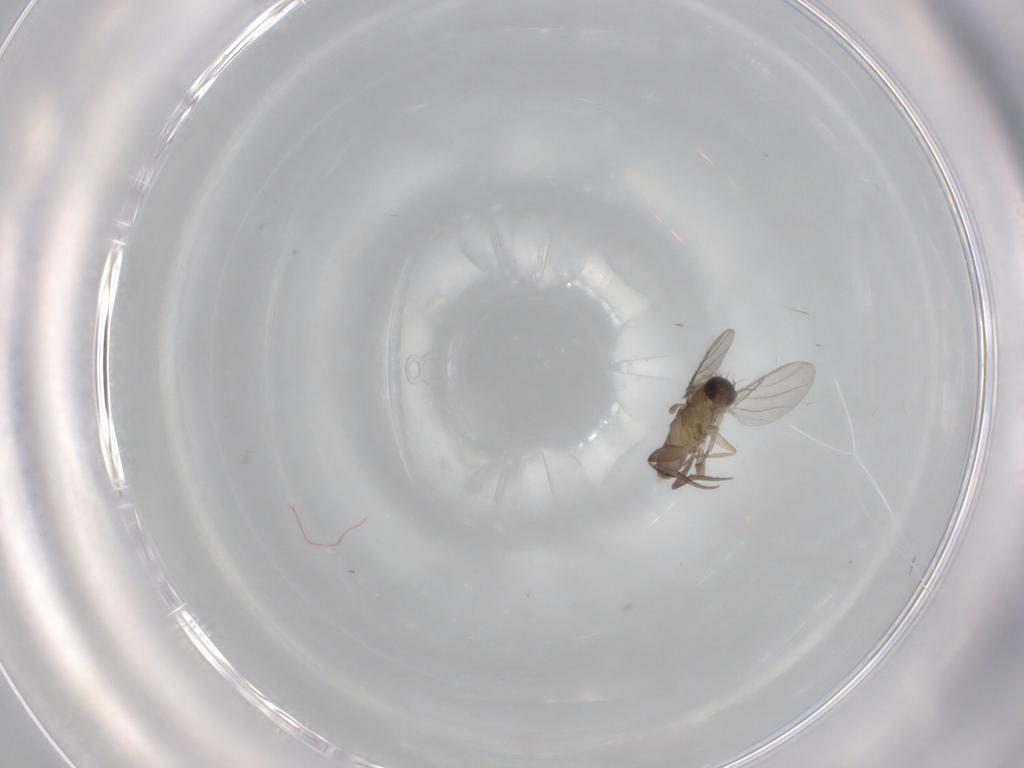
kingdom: Animalia
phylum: Arthropoda
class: Insecta
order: Diptera
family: Phoridae
